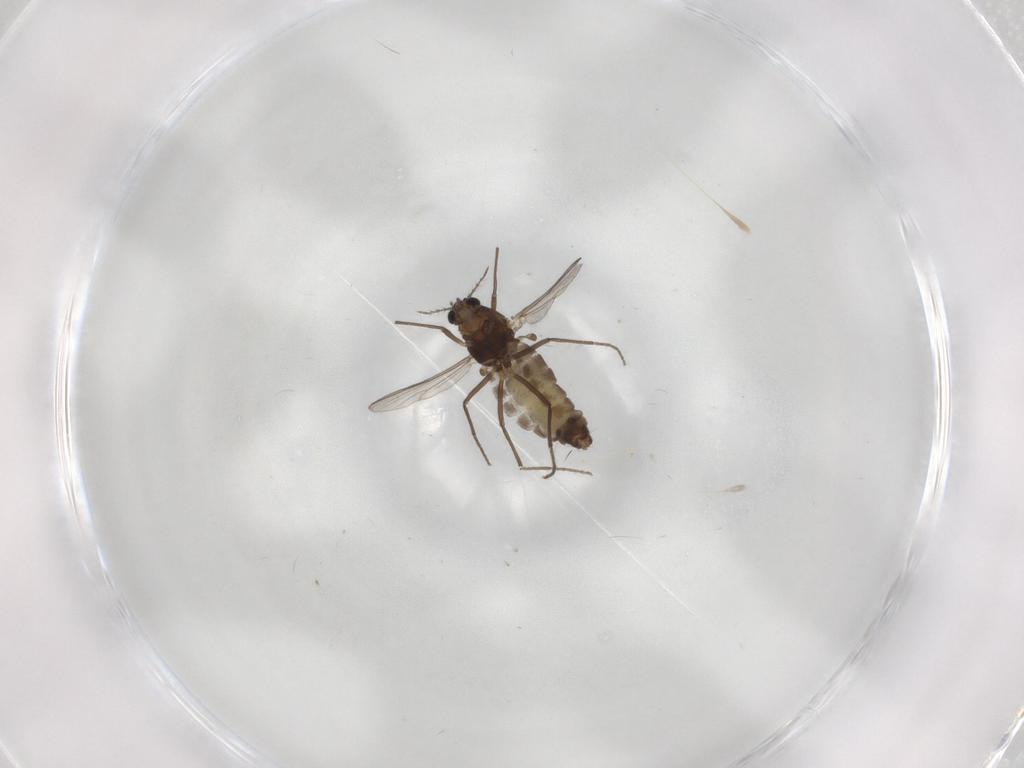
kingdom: Animalia
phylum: Arthropoda
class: Insecta
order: Diptera
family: Chironomidae
